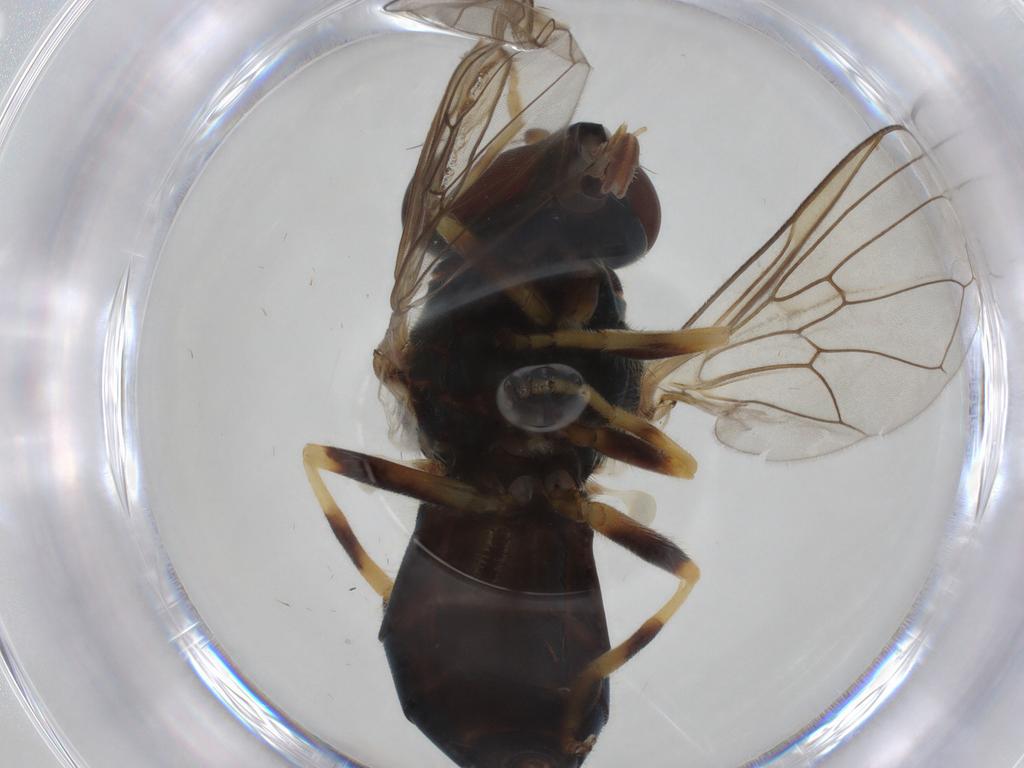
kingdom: Animalia
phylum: Arthropoda
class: Insecta
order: Diptera
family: Syrphidae
